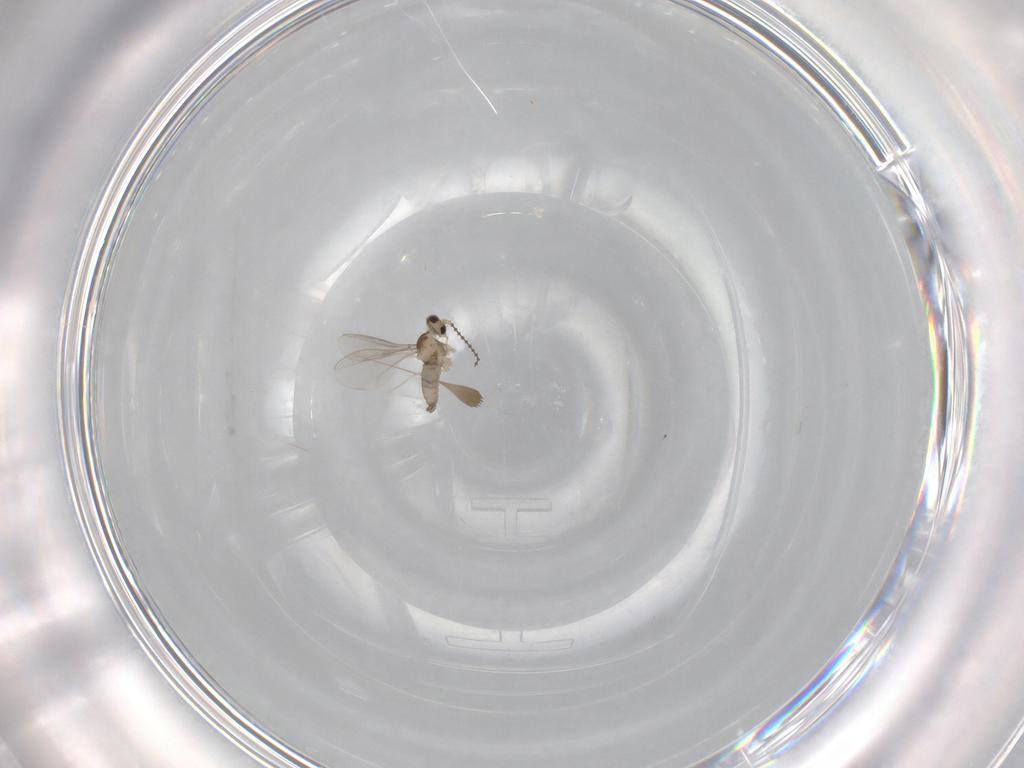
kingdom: Animalia
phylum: Arthropoda
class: Insecta
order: Diptera
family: Cecidomyiidae
